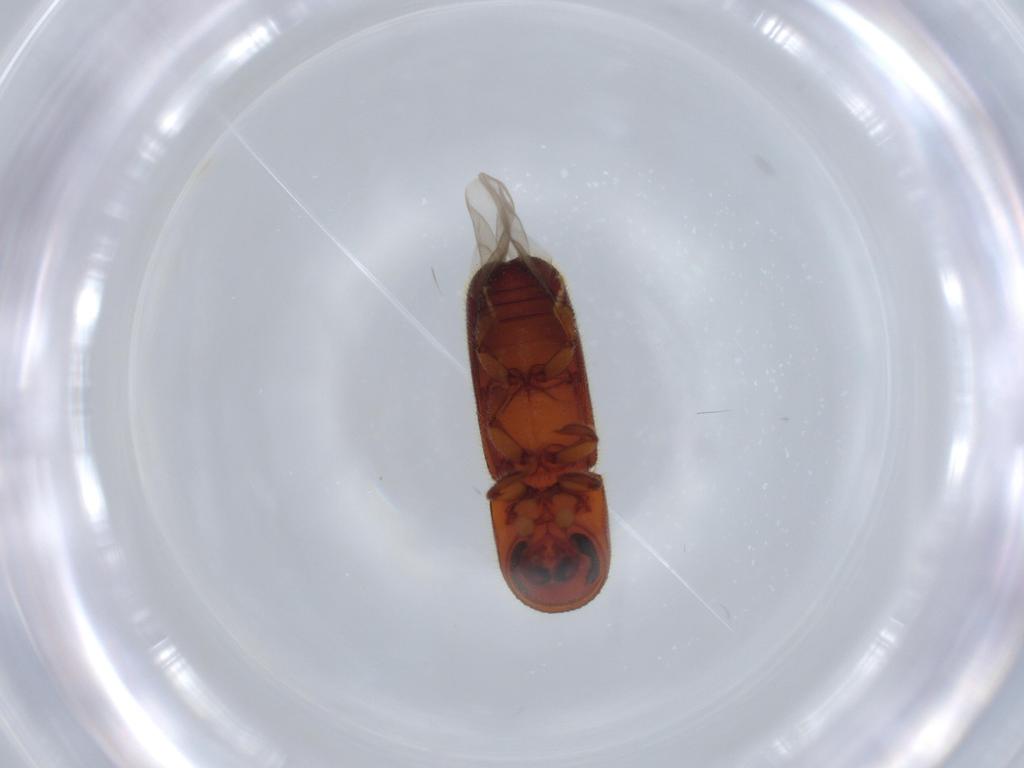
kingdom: Animalia
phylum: Arthropoda
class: Insecta
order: Coleoptera
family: Curculionidae
